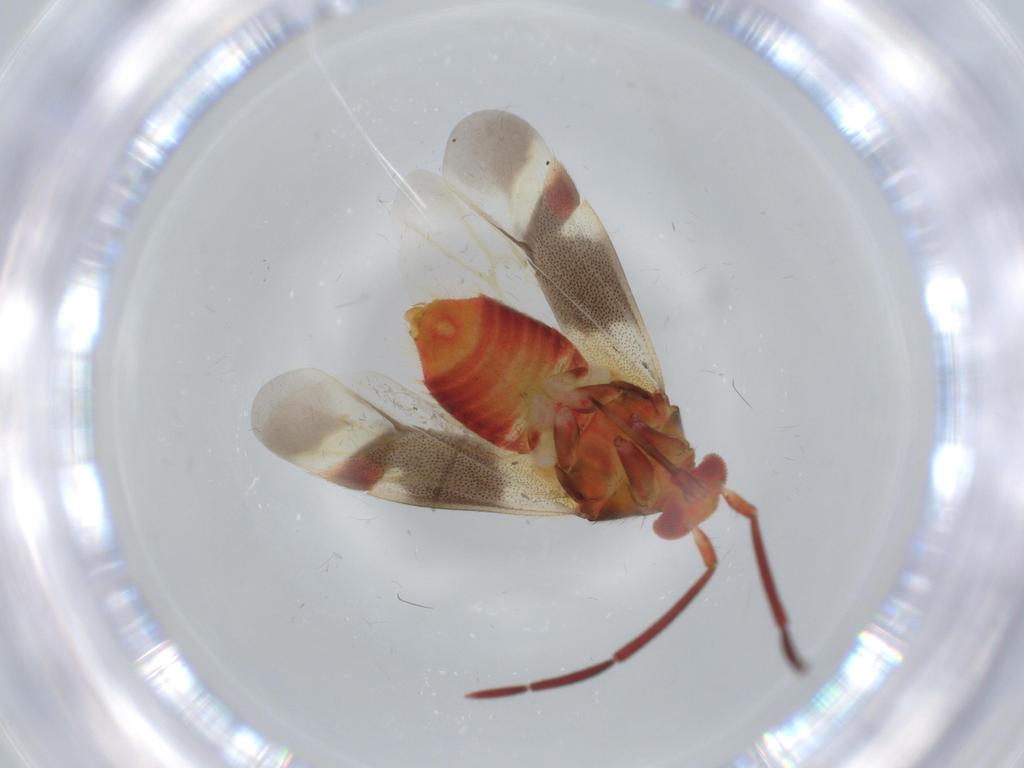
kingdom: Animalia
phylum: Arthropoda
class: Insecta
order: Hemiptera
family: Miridae
